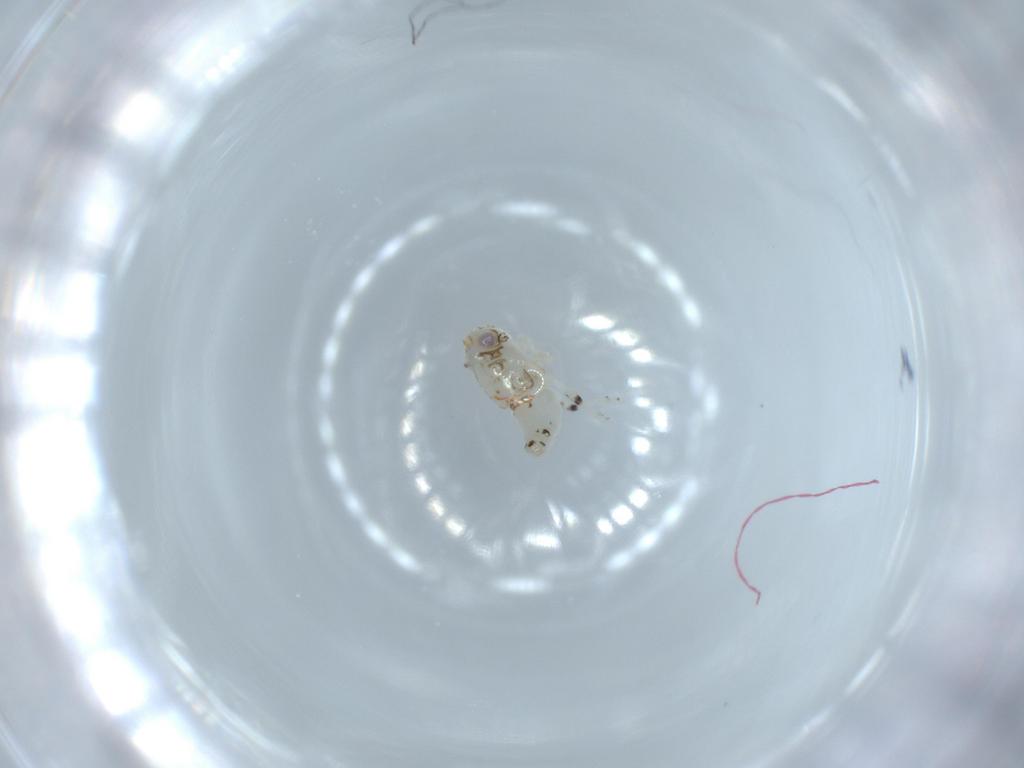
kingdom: Animalia
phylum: Arthropoda
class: Insecta
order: Hemiptera
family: Nogodinidae
